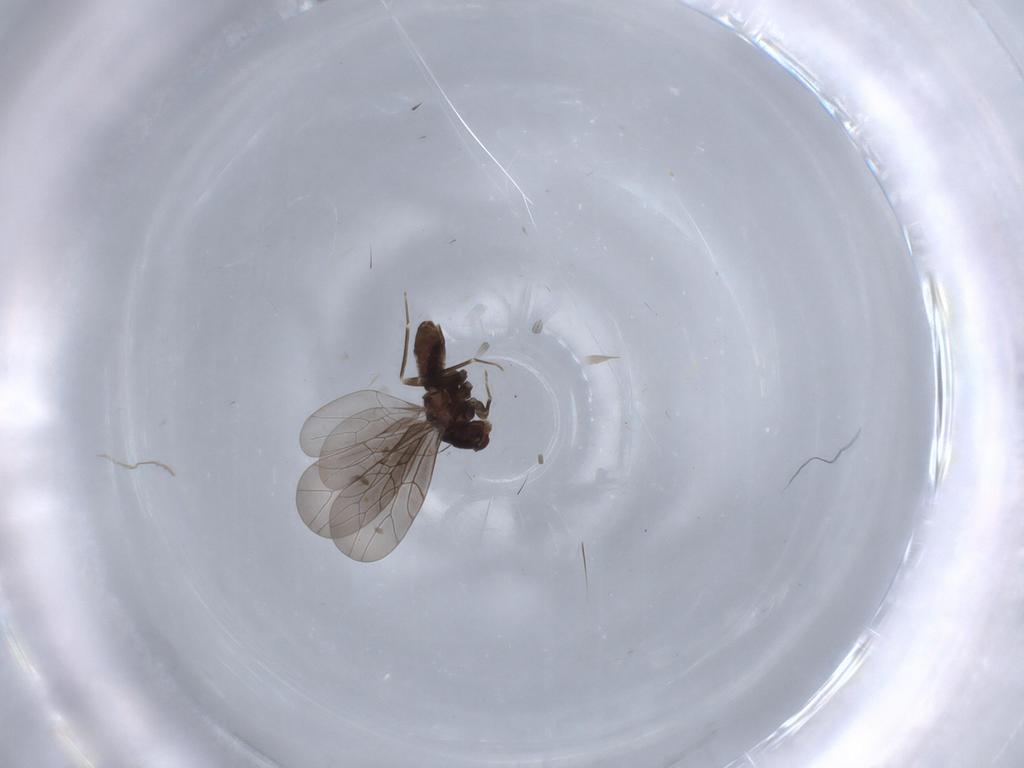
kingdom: Animalia
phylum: Arthropoda
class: Insecta
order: Psocodea
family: Lepidopsocidae
